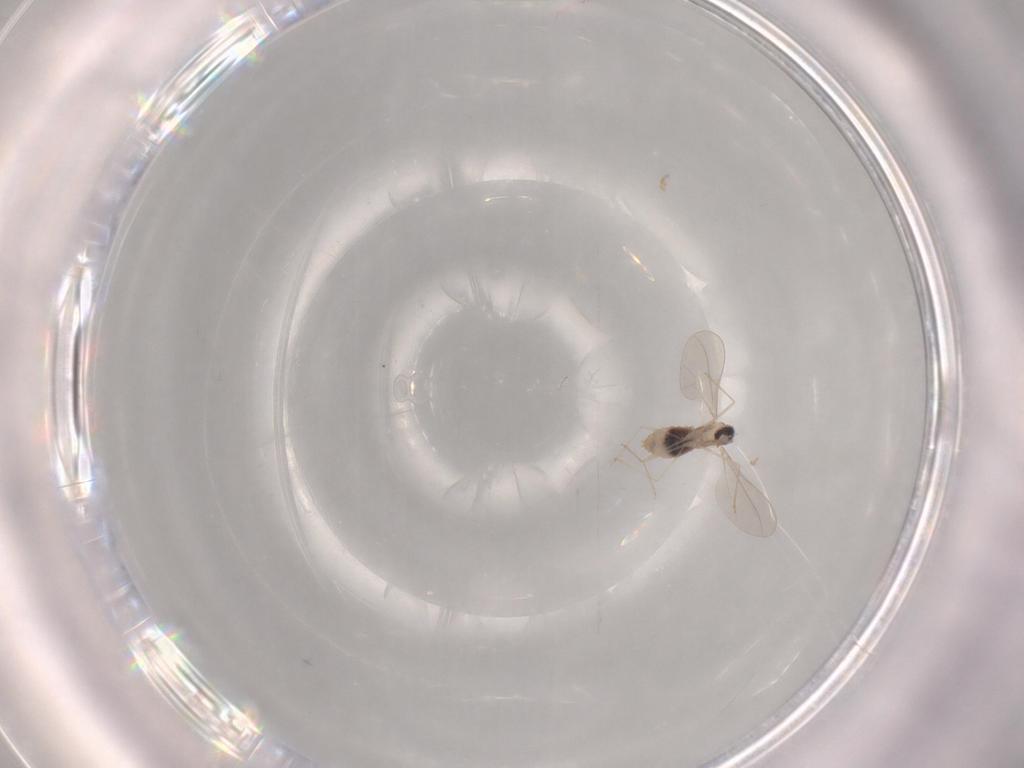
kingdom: Animalia
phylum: Arthropoda
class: Insecta
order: Diptera
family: Cecidomyiidae
